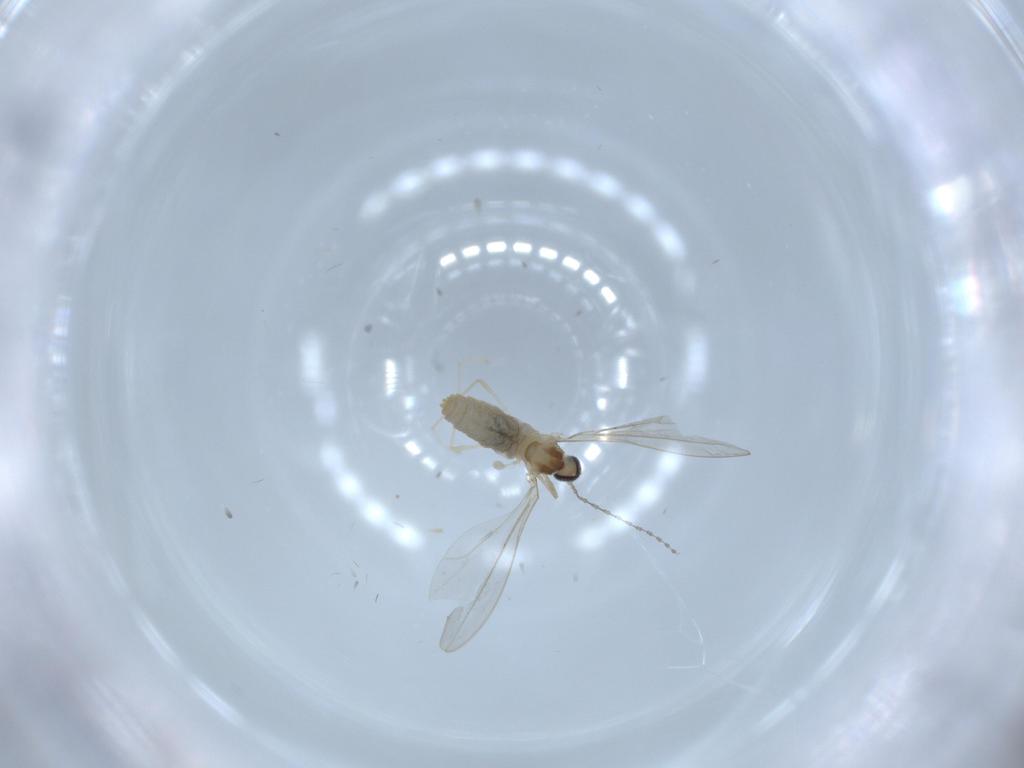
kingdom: Animalia
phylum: Arthropoda
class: Insecta
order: Diptera
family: Cecidomyiidae
